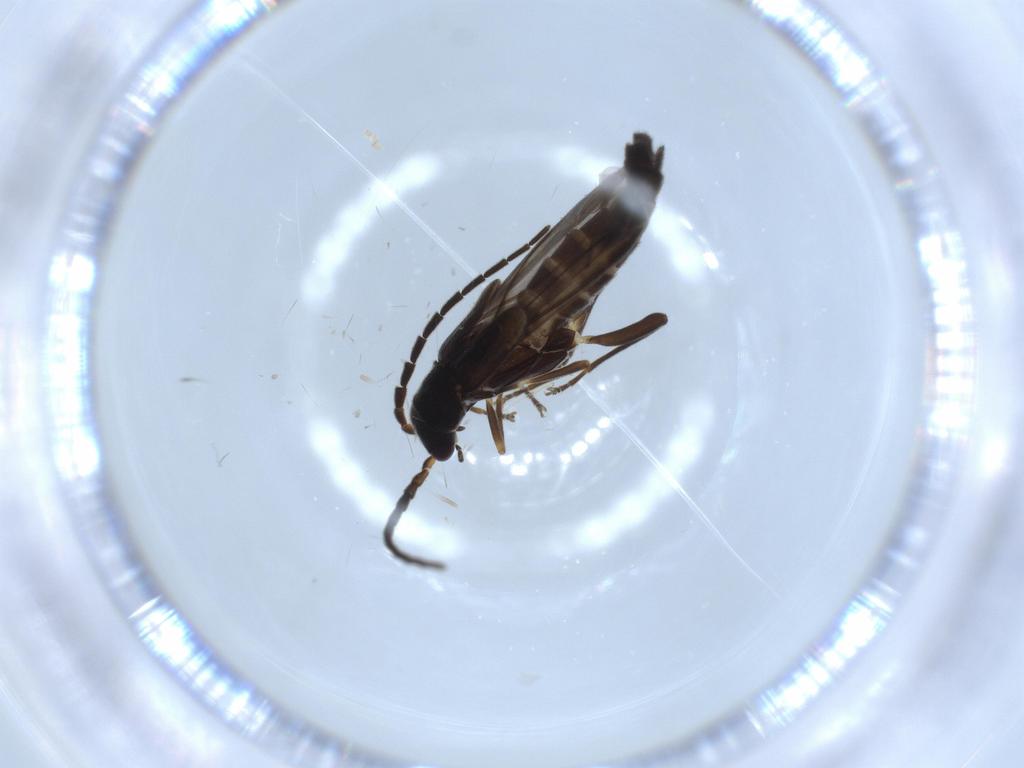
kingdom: Animalia
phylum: Arthropoda
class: Insecta
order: Coleoptera
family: Cantharidae
